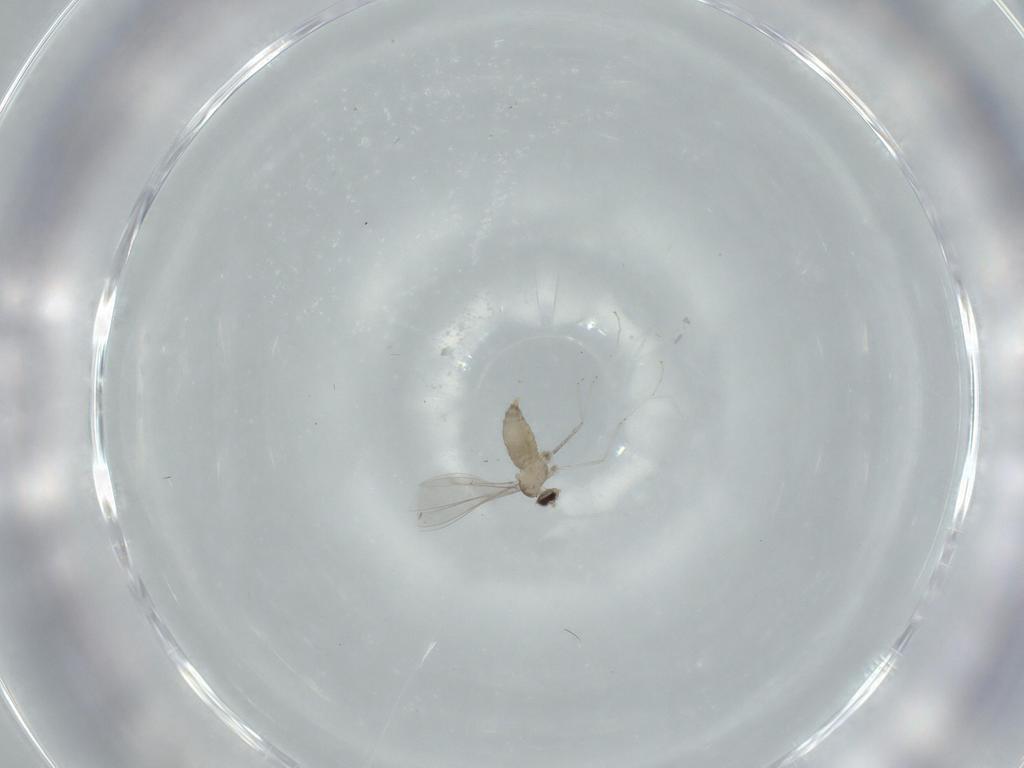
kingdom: Animalia
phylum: Arthropoda
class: Insecta
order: Diptera
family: Cecidomyiidae
